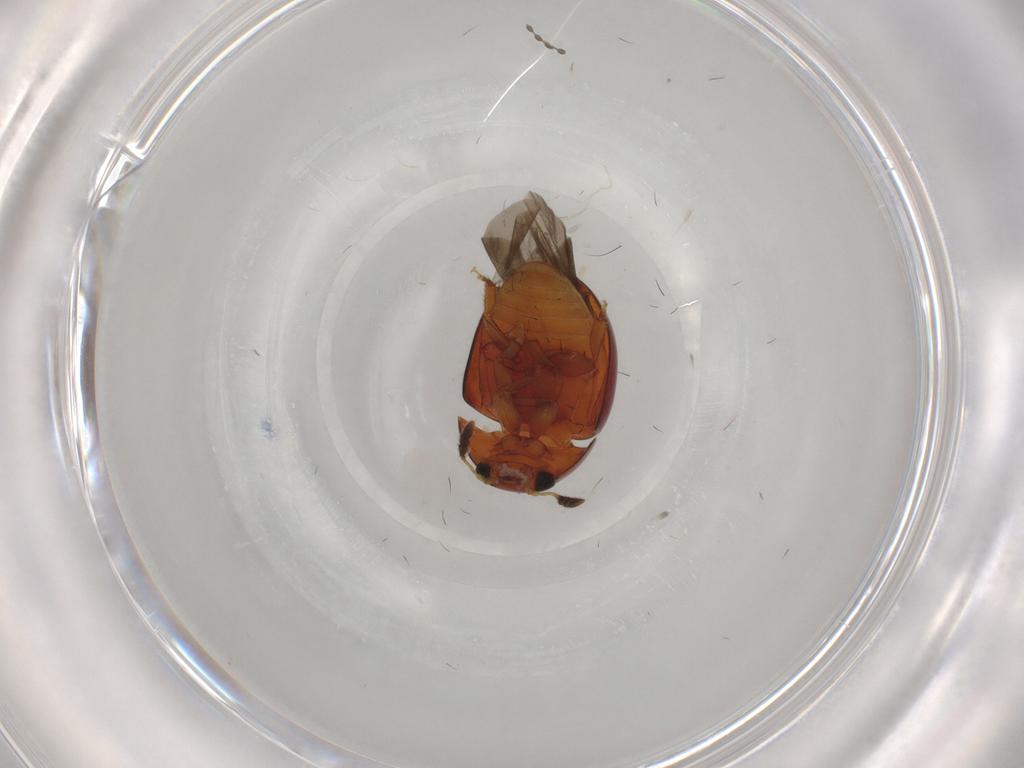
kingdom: Animalia
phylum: Arthropoda
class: Insecta
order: Coleoptera
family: Phalacridae
